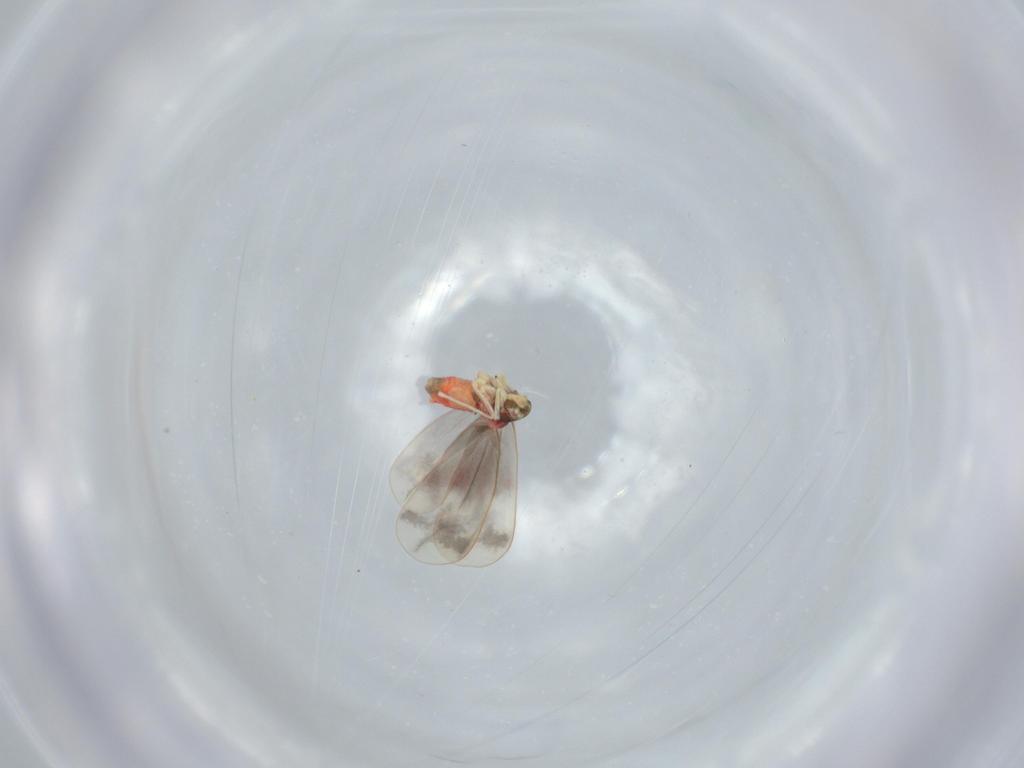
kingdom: Animalia
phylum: Arthropoda
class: Insecta
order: Hemiptera
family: Aleyrodidae
